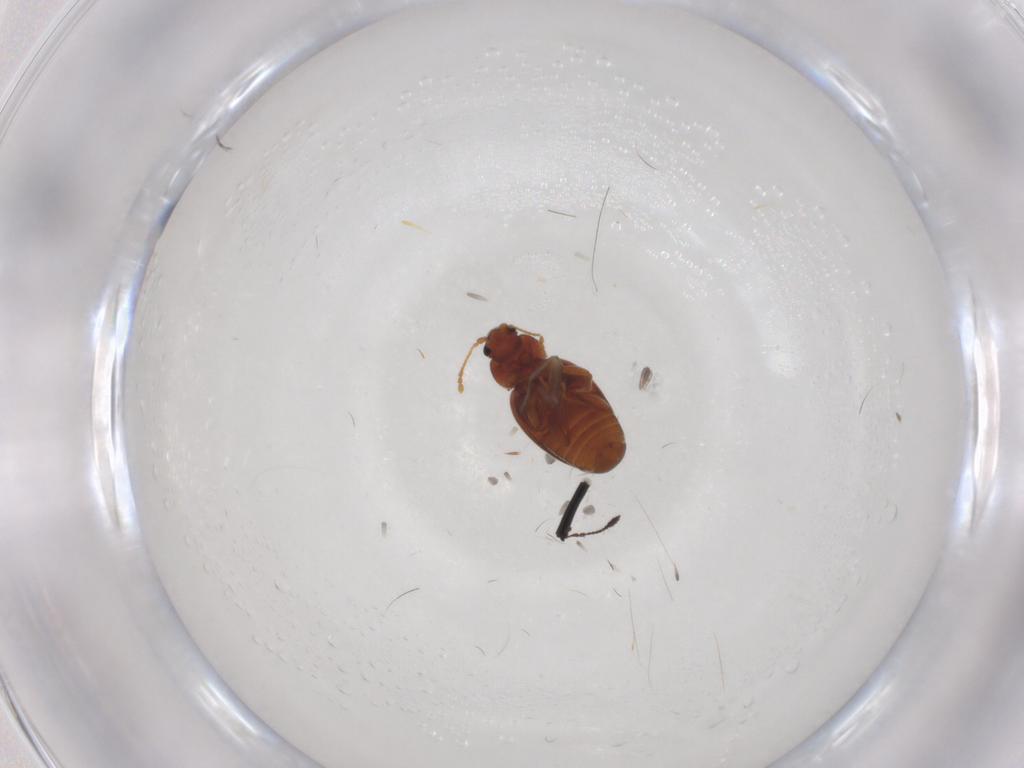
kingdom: Animalia
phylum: Arthropoda
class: Insecta
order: Coleoptera
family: Latridiidae
